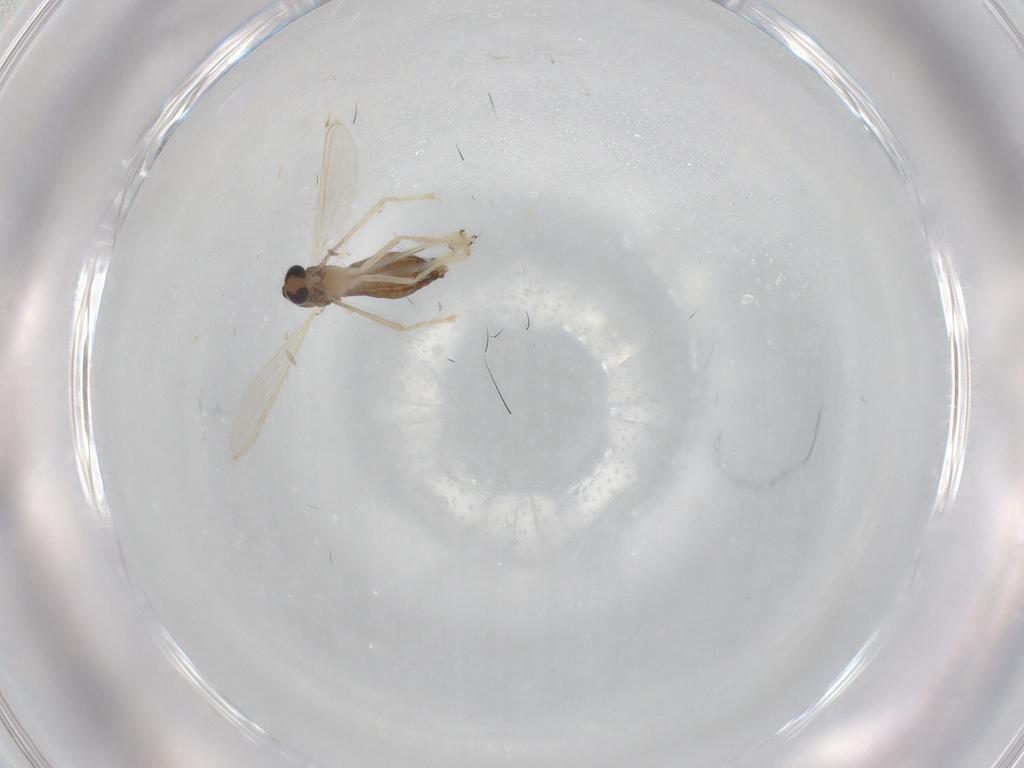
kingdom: Animalia
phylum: Arthropoda
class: Insecta
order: Diptera
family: Chironomidae
